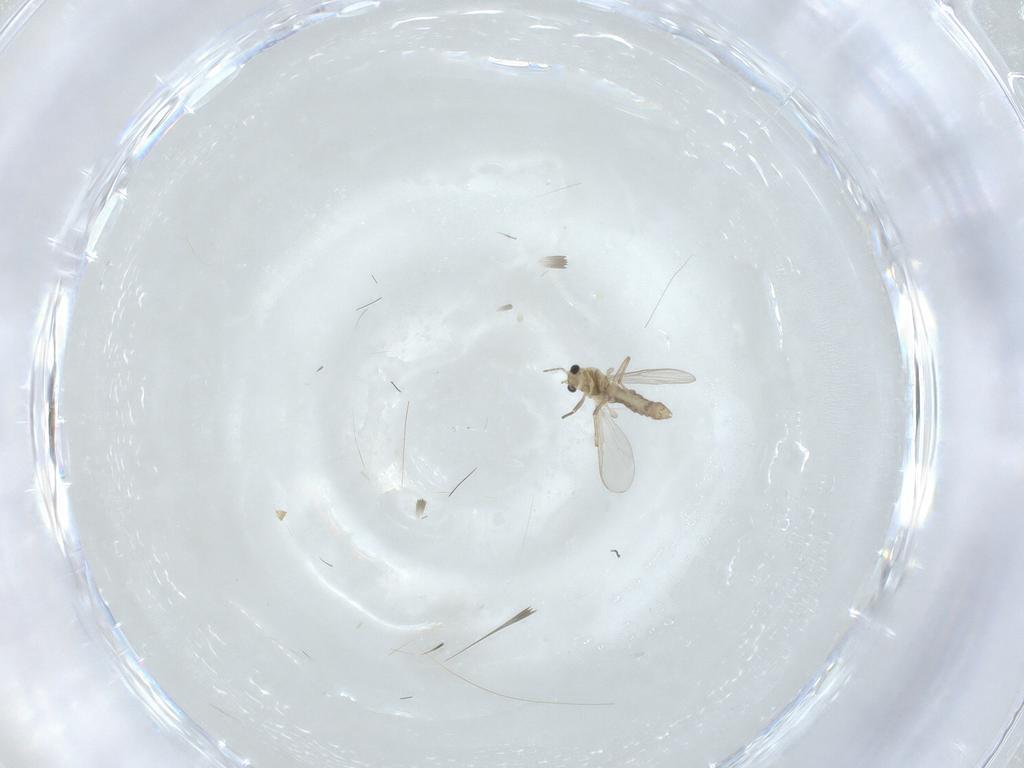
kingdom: Animalia
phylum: Arthropoda
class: Insecta
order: Diptera
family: Chironomidae
